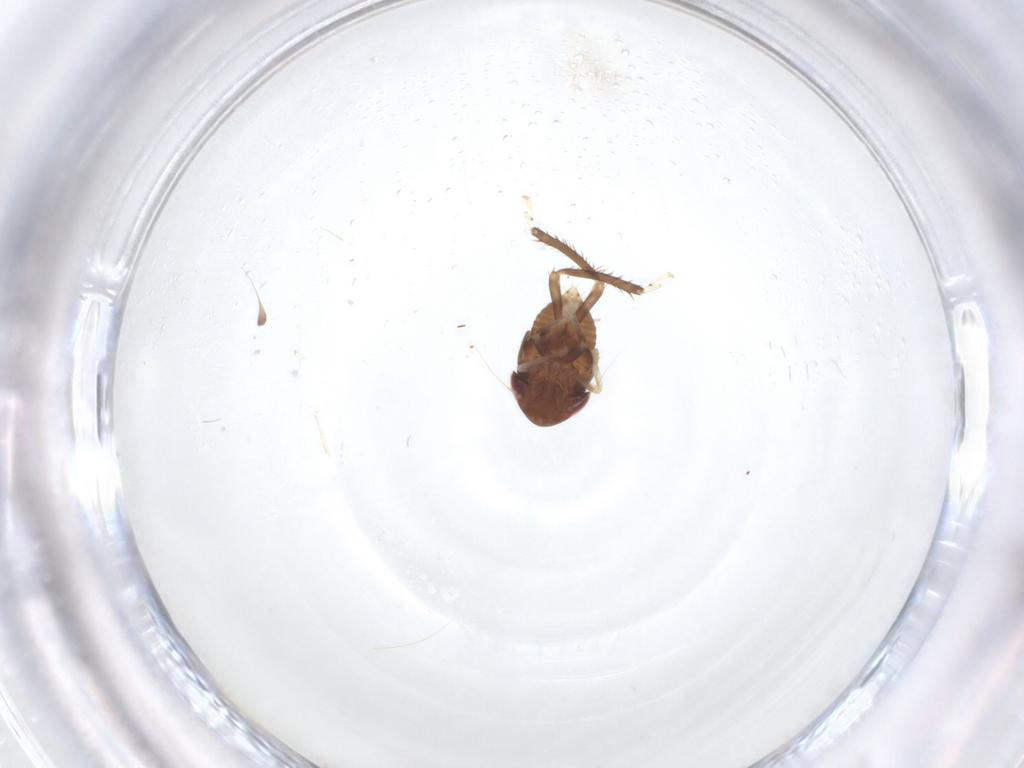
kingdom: Animalia
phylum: Arthropoda
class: Insecta
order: Hemiptera
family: Cicadellidae
